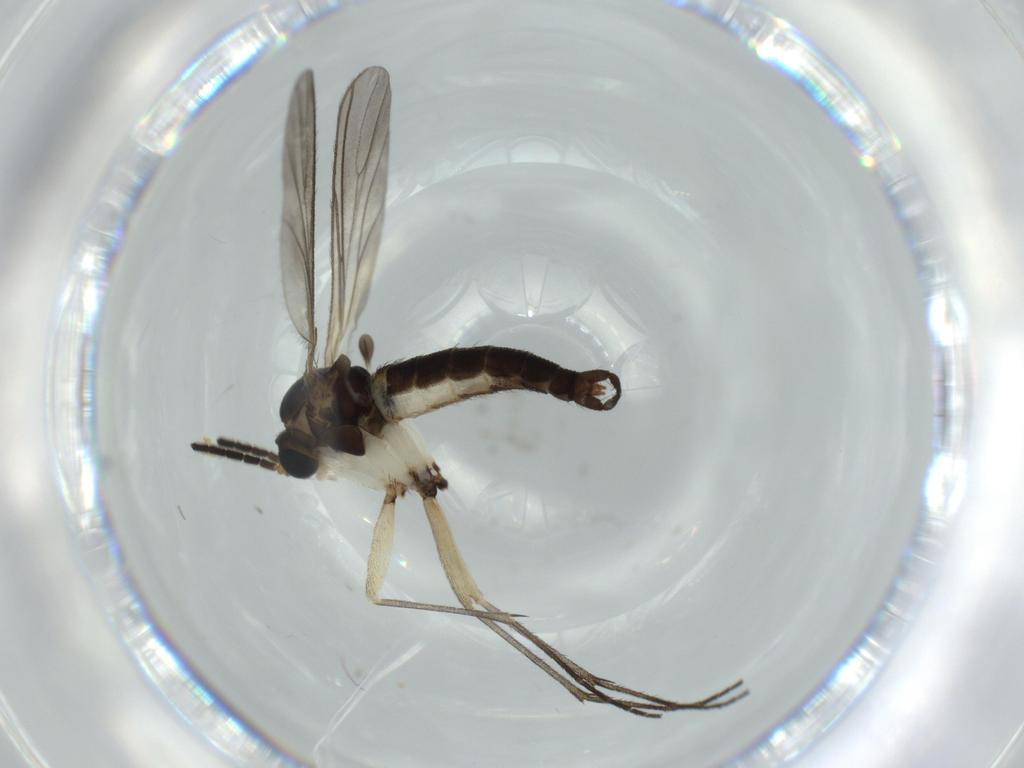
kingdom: Animalia
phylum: Arthropoda
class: Insecta
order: Diptera
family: Sciaridae
